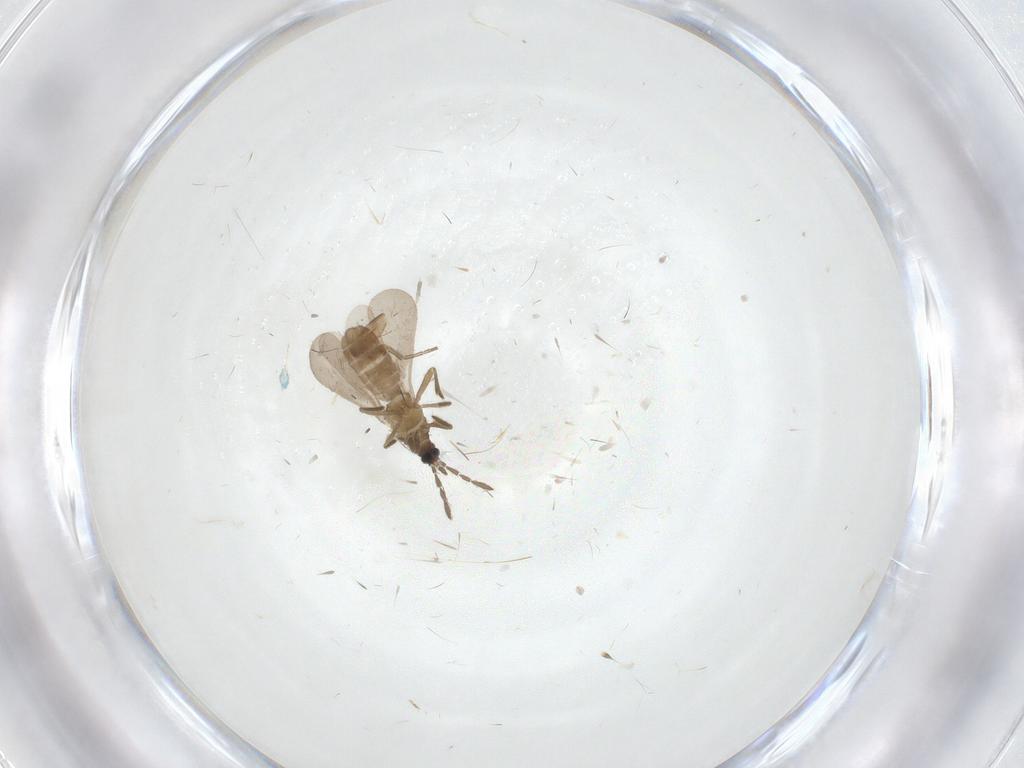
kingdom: Animalia
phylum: Arthropoda
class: Insecta
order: Hemiptera
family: Enicocephalidae
